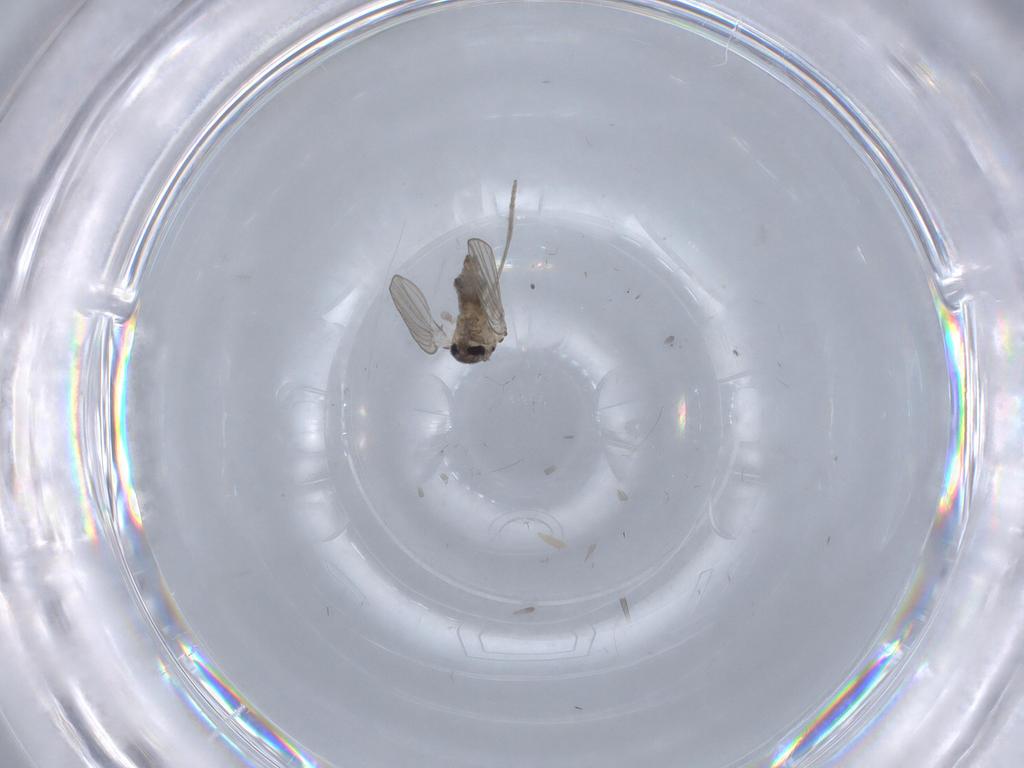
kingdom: Animalia
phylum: Arthropoda
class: Insecta
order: Diptera
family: Psychodidae
